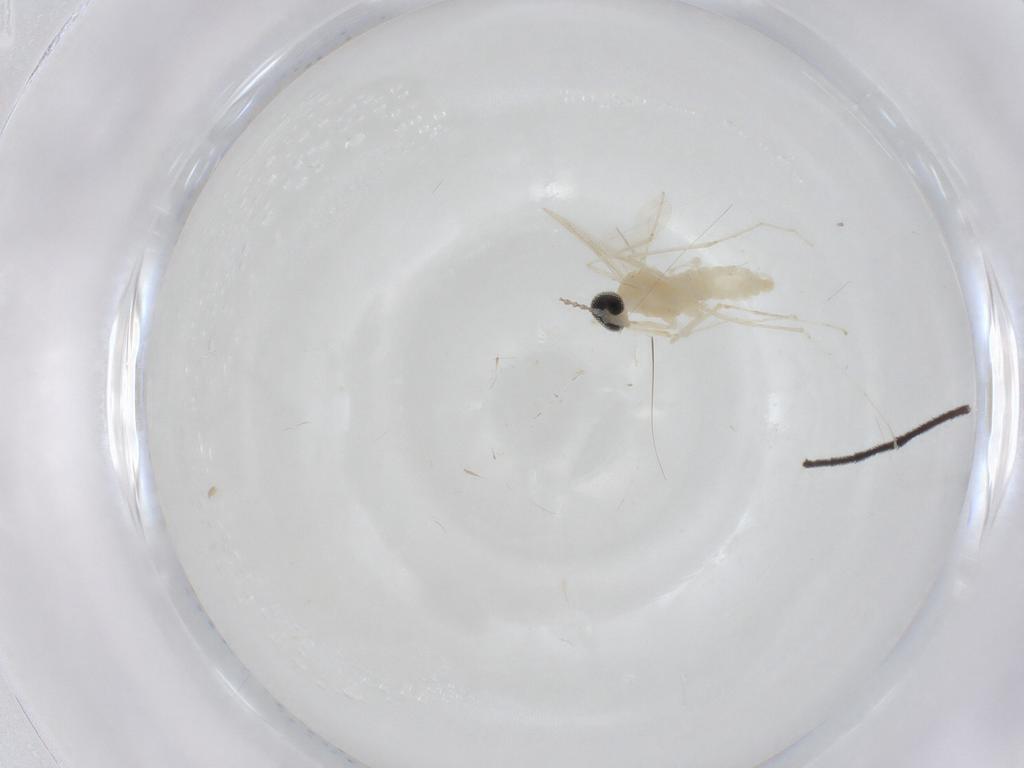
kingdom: Animalia
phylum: Arthropoda
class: Insecta
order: Diptera
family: Cecidomyiidae
